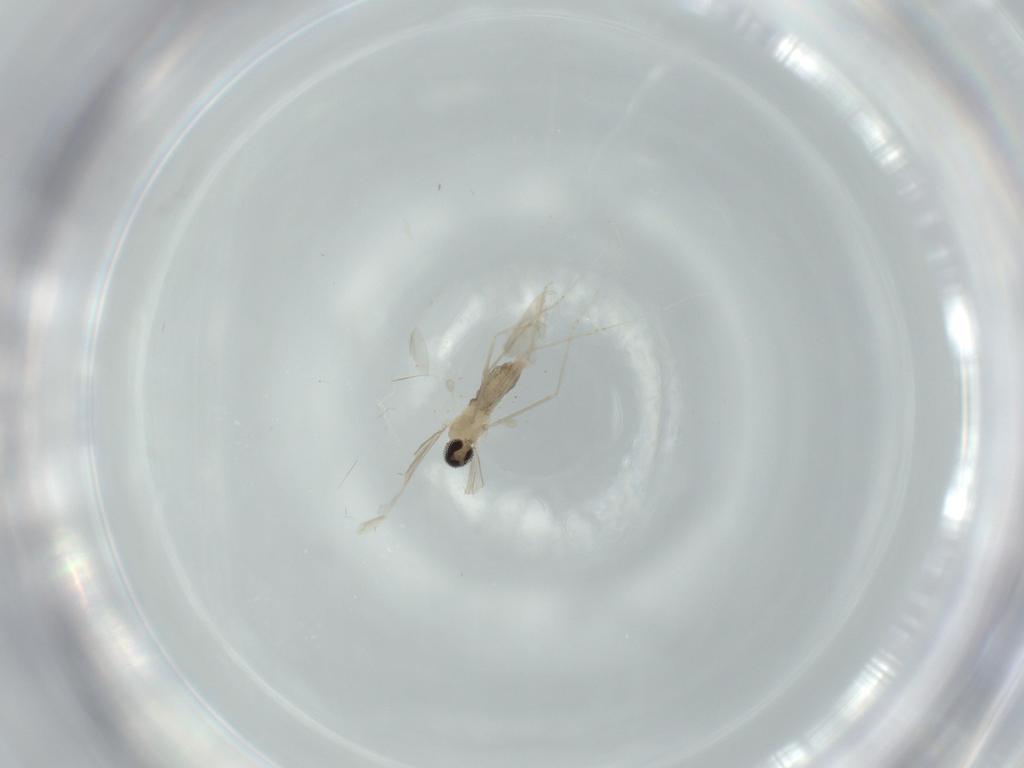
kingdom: Animalia
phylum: Arthropoda
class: Insecta
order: Diptera
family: Cecidomyiidae
